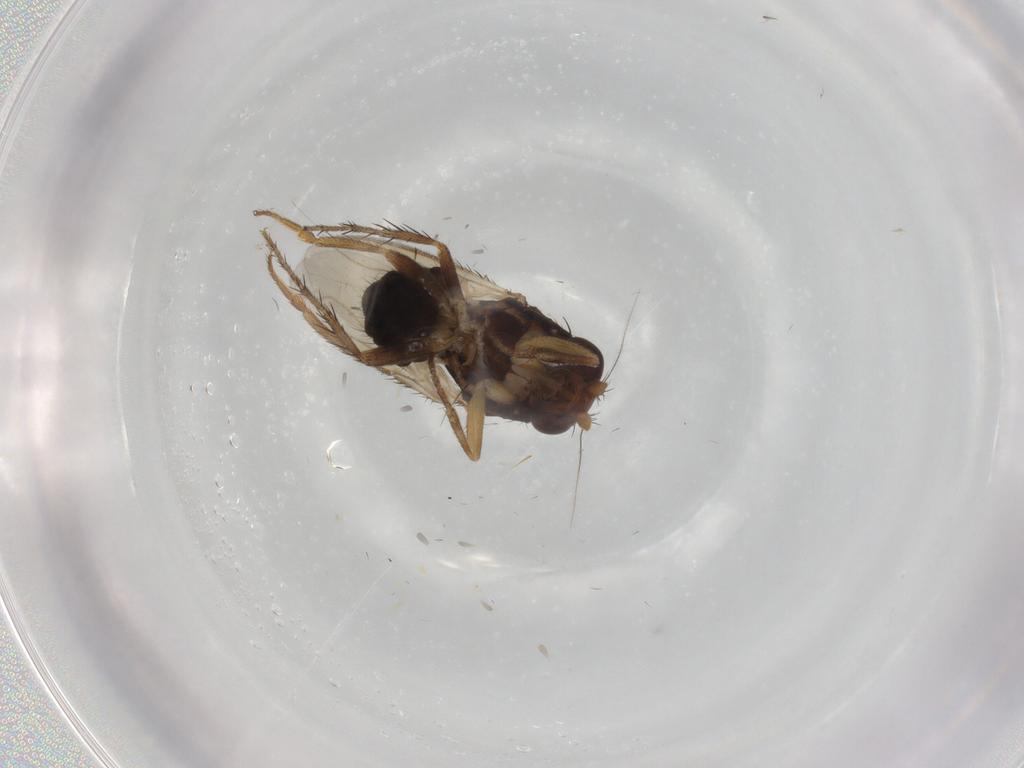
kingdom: Animalia
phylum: Arthropoda
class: Insecta
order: Diptera
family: Sphaeroceridae
